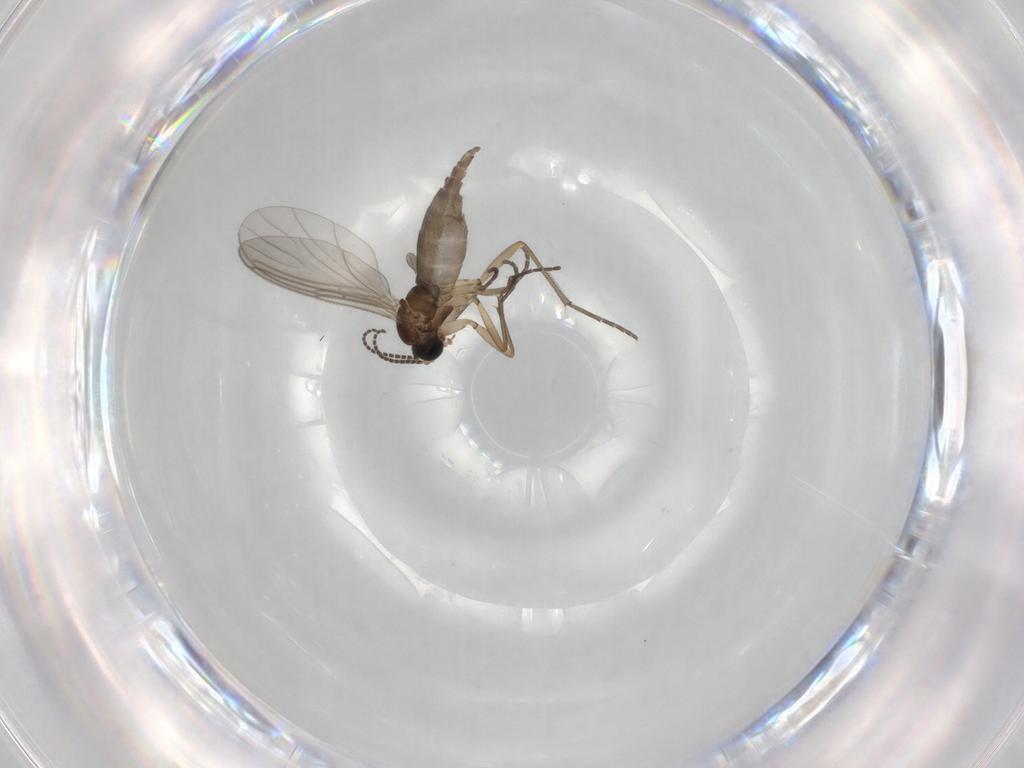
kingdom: Animalia
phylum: Arthropoda
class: Insecta
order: Diptera
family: Sciaridae
